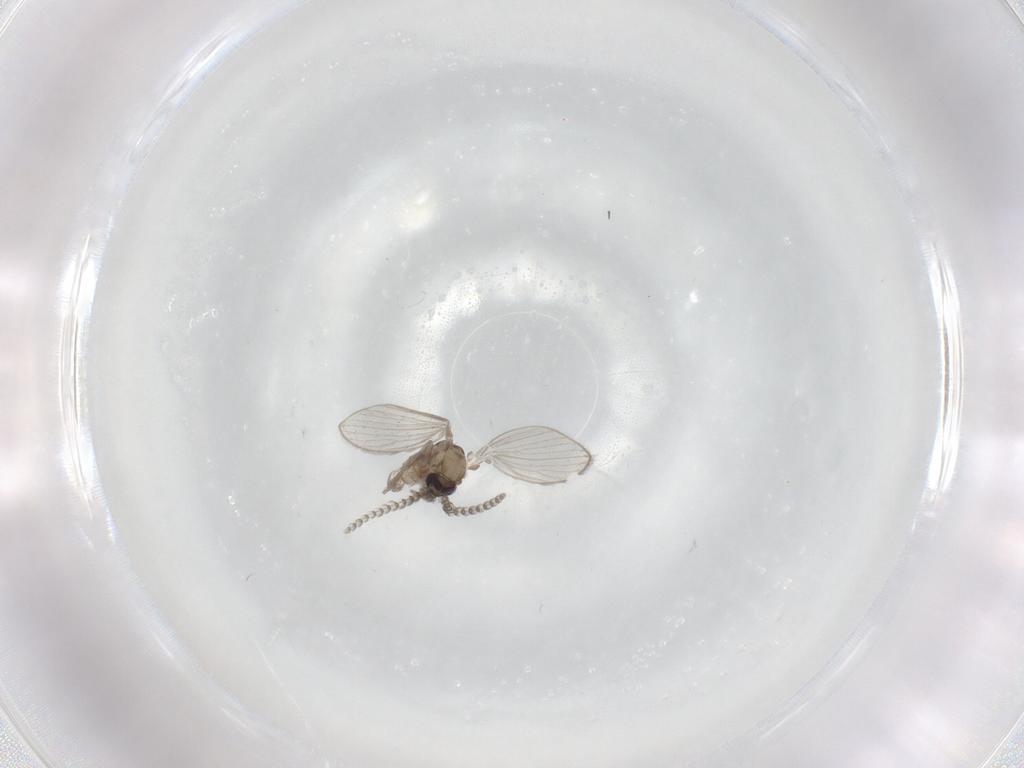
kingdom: Animalia
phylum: Arthropoda
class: Insecta
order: Diptera
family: Psychodidae
